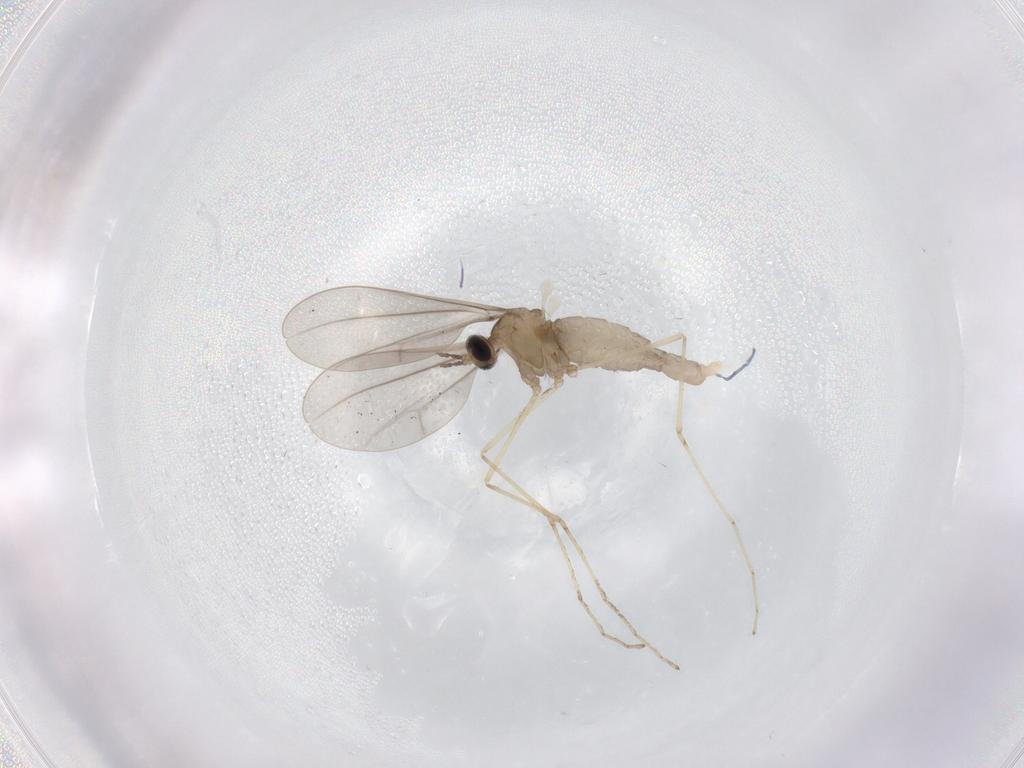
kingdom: Animalia
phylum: Arthropoda
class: Insecta
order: Diptera
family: Cecidomyiidae
